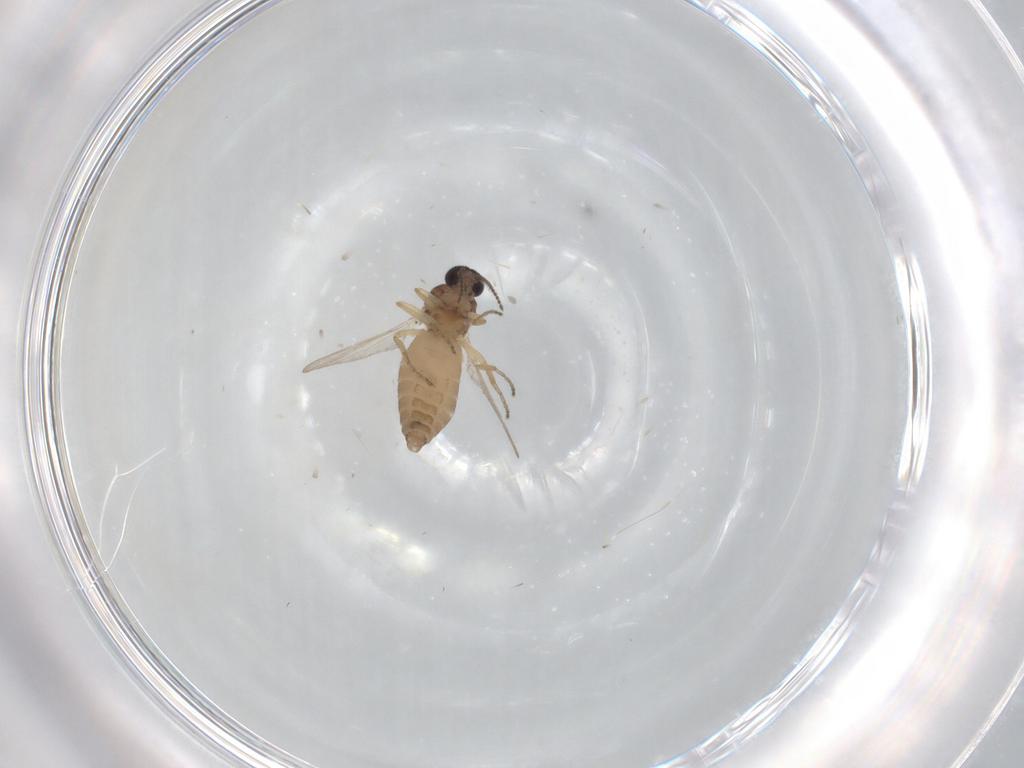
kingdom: Animalia
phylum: Arthropoda
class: Insecta
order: Diptera
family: Ceratopogonidae
